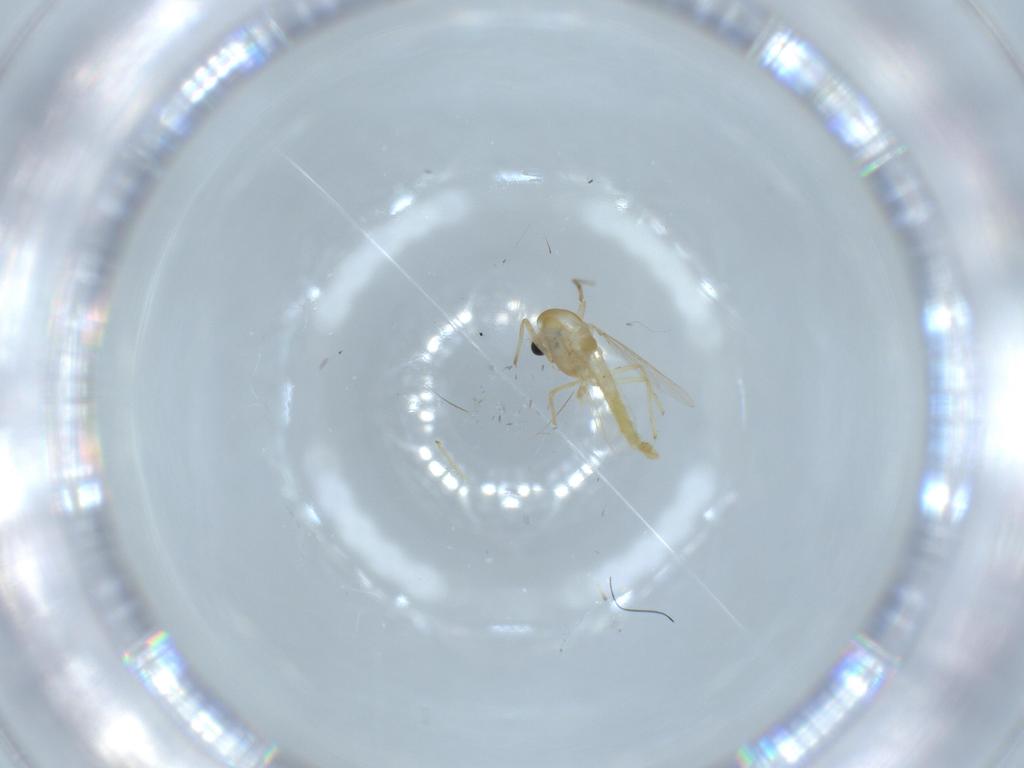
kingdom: Animalia
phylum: Arthropoda
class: Insecta
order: Diptera
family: Chironomidae
